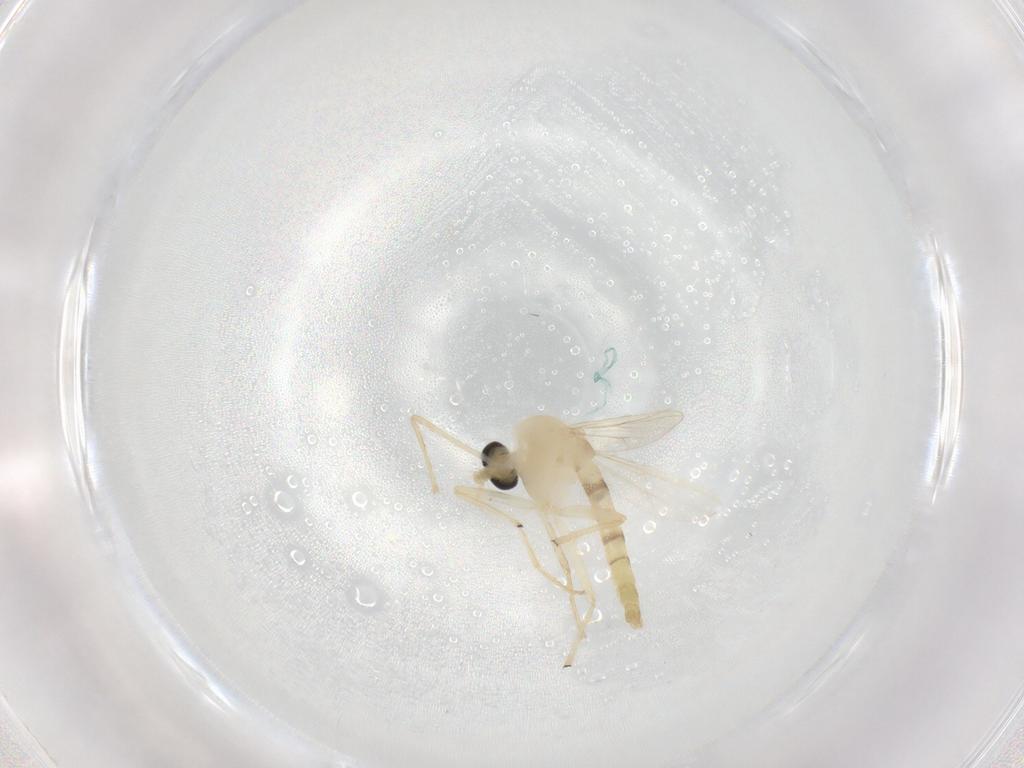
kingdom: Animalia
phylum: Arthropoda
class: Insecta
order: Diptera
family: Chironomidae
